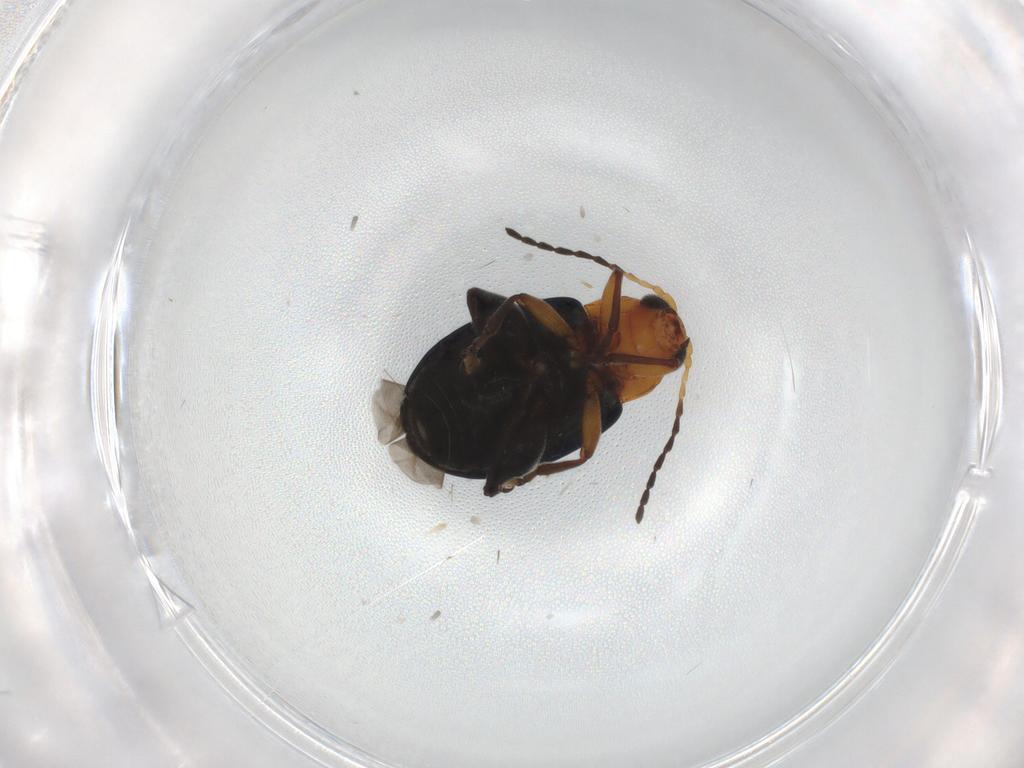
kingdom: Animalia
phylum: Arthropoda
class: Insecta
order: Coleoptera
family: Chrysomelidae
